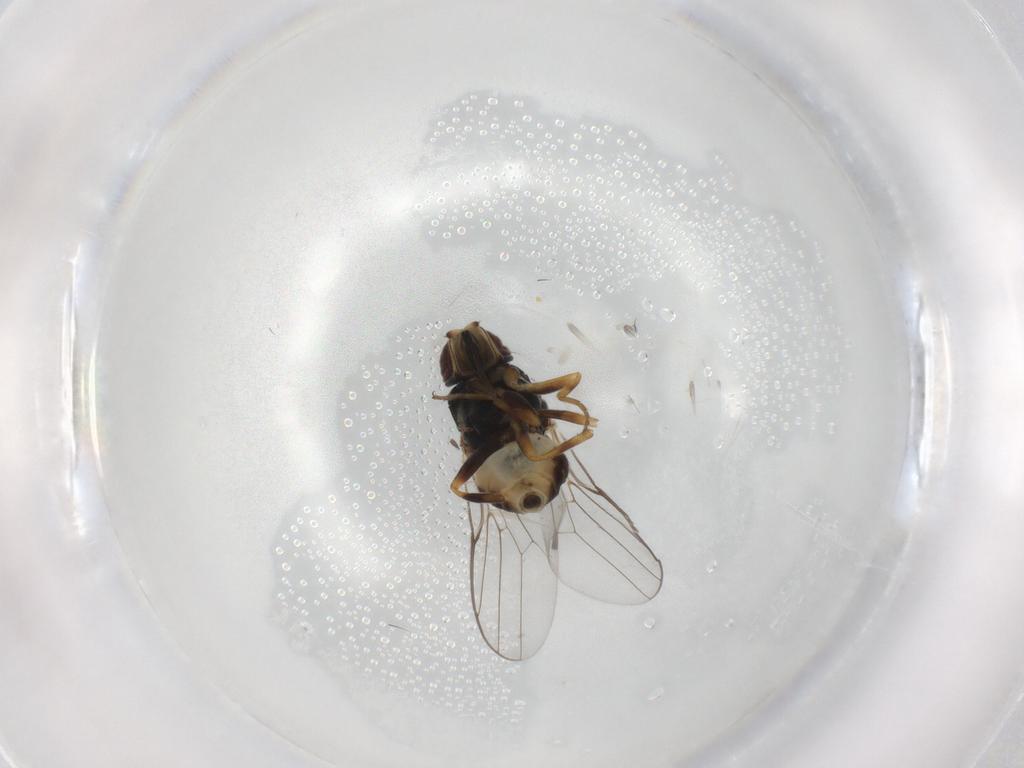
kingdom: Animalia
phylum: Arthropoda
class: Insecta
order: Diptera
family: Chloropidae
